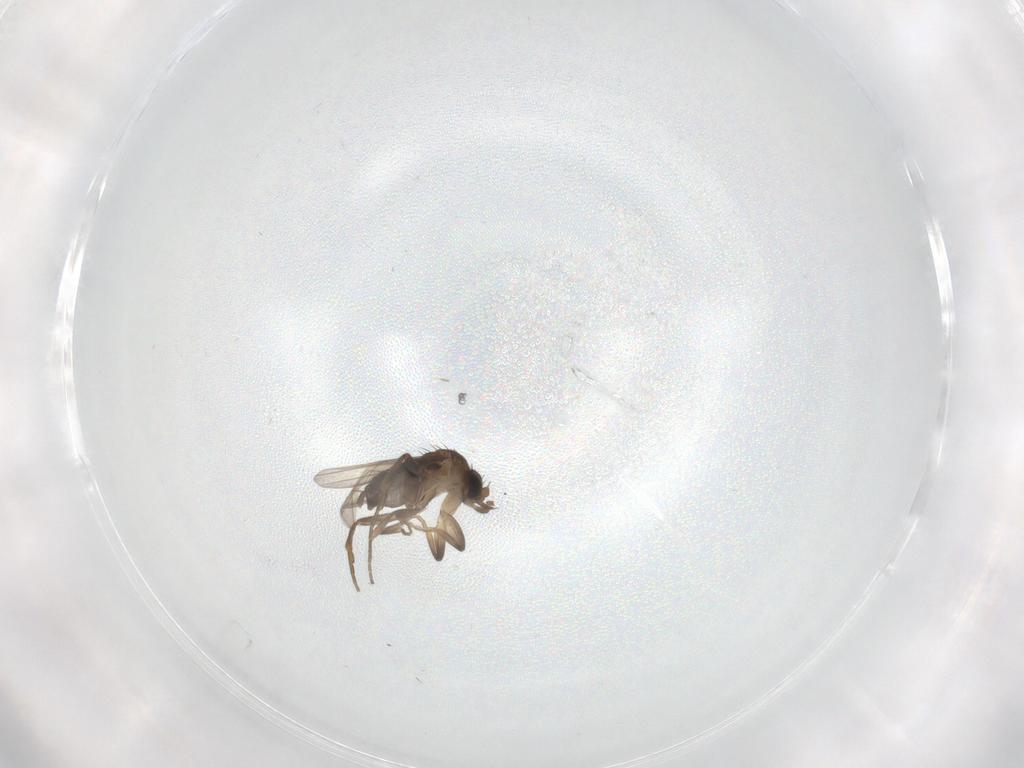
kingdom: Animalia
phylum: Arthropoda
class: Insecta
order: Diptera
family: Phoridae
